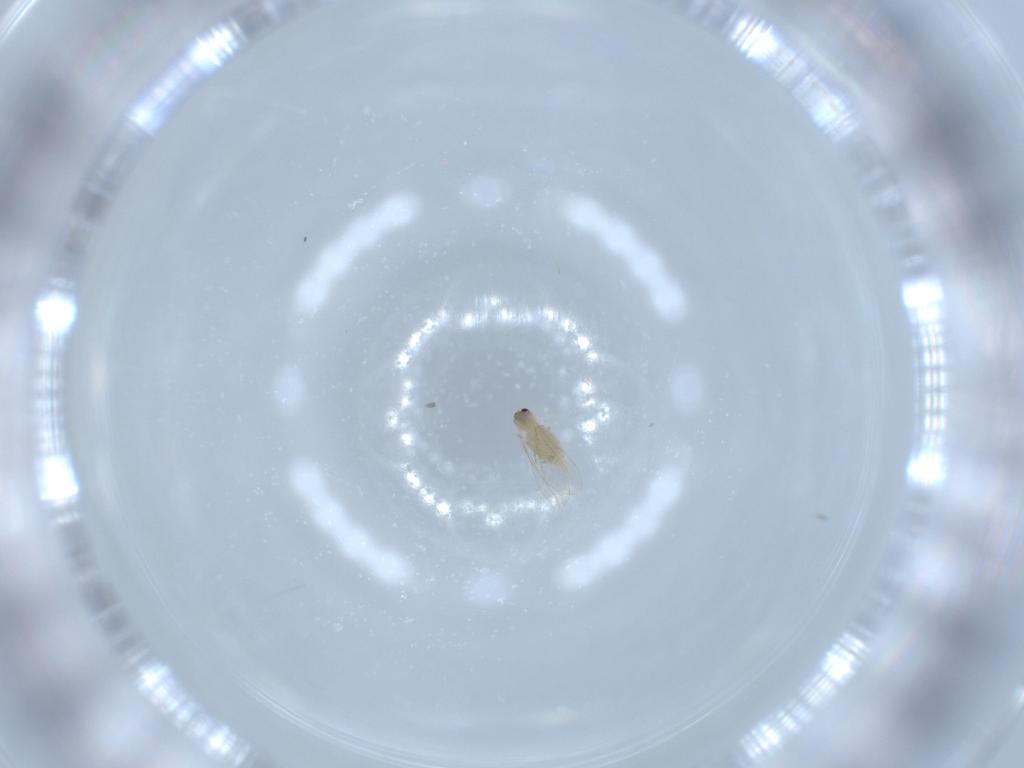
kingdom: Animalia
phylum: Arthropoda
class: Insecta
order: Diptera
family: Cecidomyiidae
